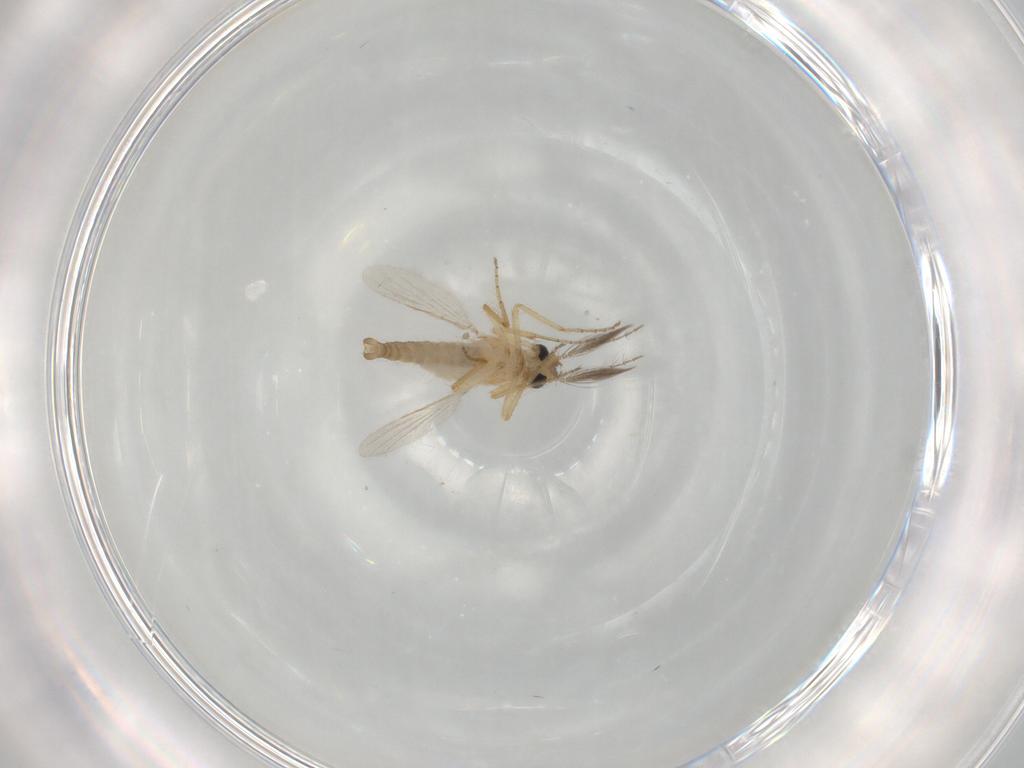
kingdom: Animalia
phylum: Arthropoda
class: Insecta
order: Diptera
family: Ceratopogonidae
